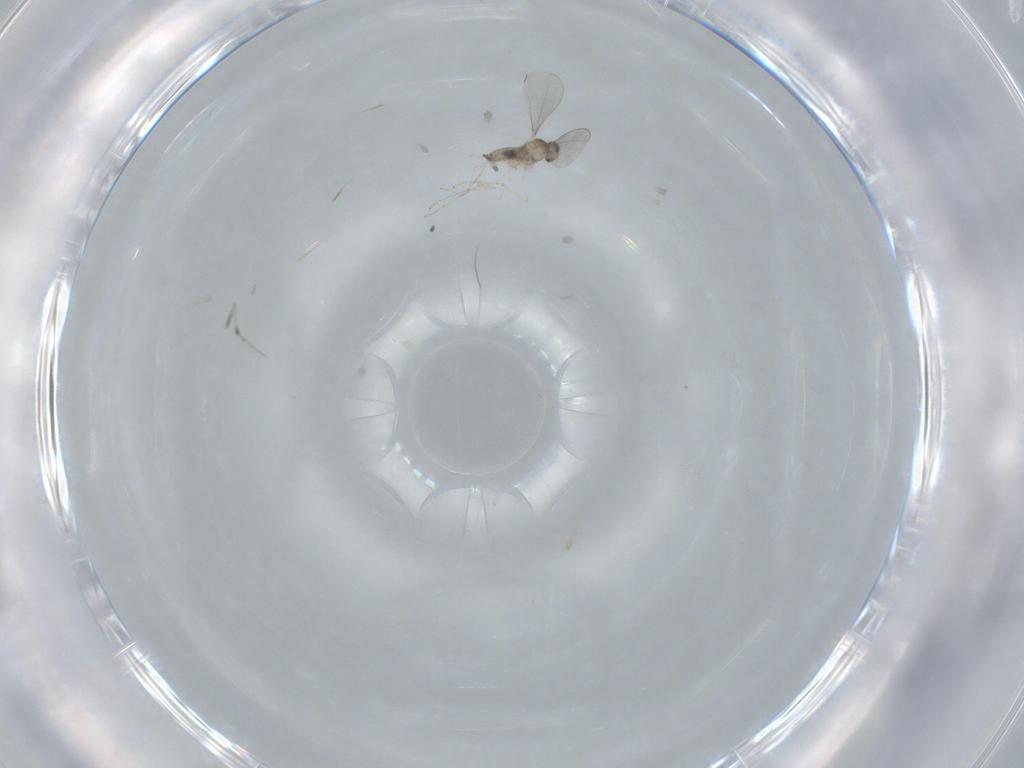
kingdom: Animalia
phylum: Arthropoda
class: Insecta
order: Diptera
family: Cecidomyiidae
